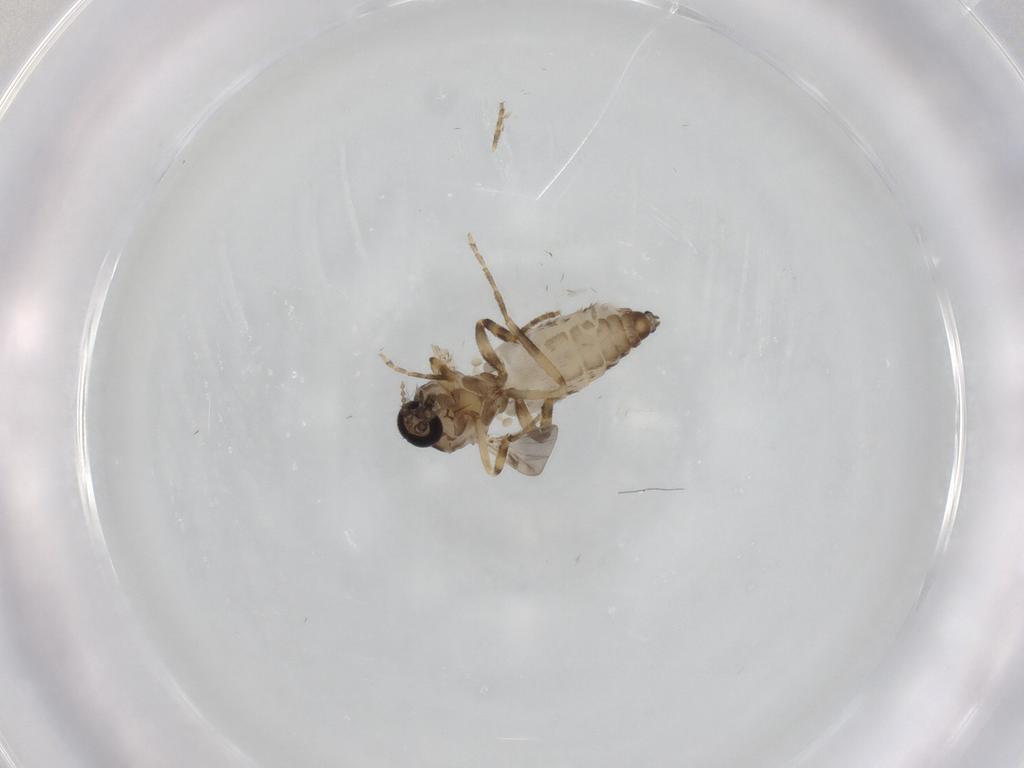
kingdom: Animalia
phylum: Arthropoda
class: Insecta
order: Diptera
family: Ceratopogonidae
